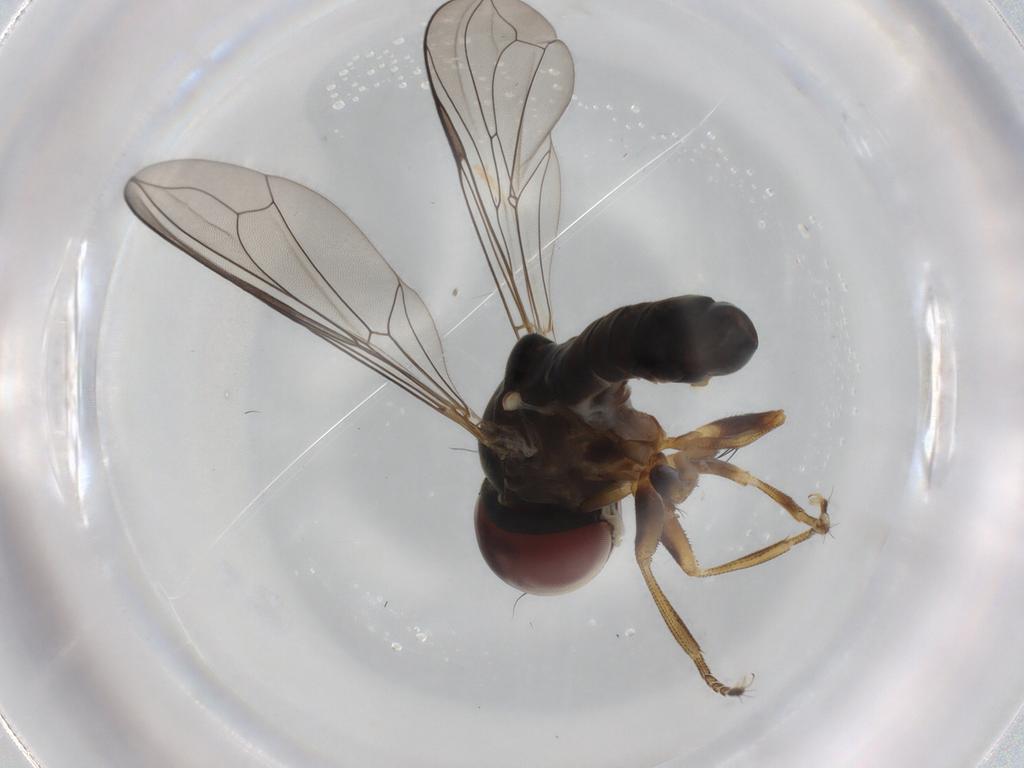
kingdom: Animalia
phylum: Arthropoda
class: Insecta
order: Diptera
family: Pipunculidae
